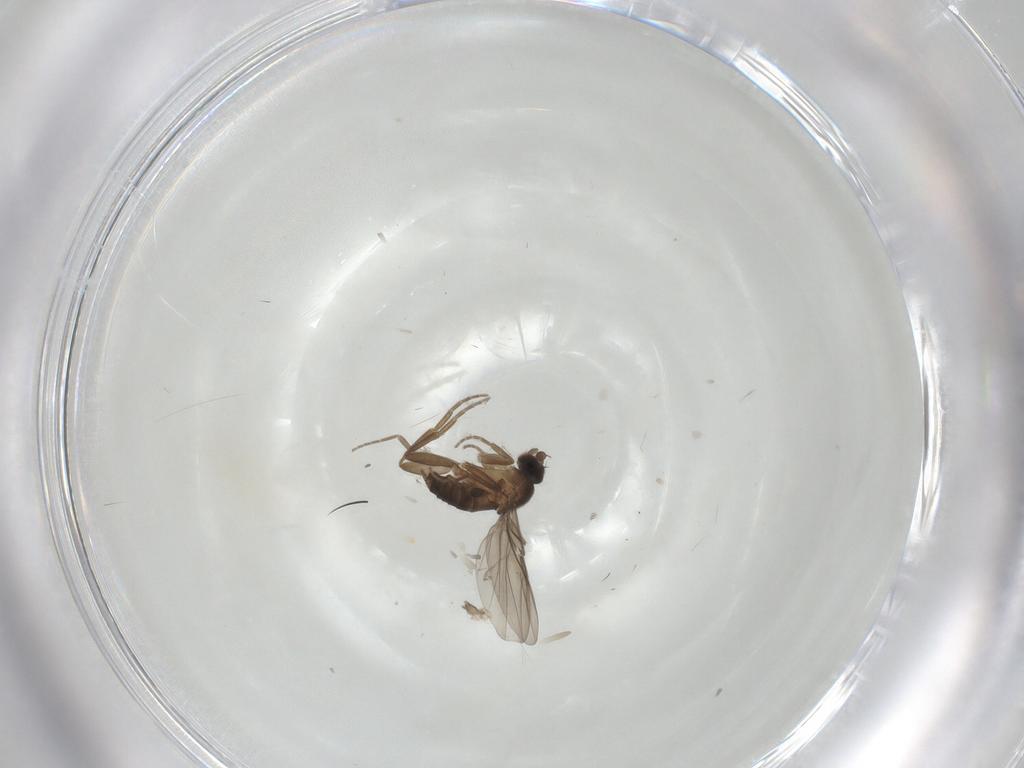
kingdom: Animalia
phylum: Arthropoda
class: Insecta
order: Diptera
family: Phoridae
